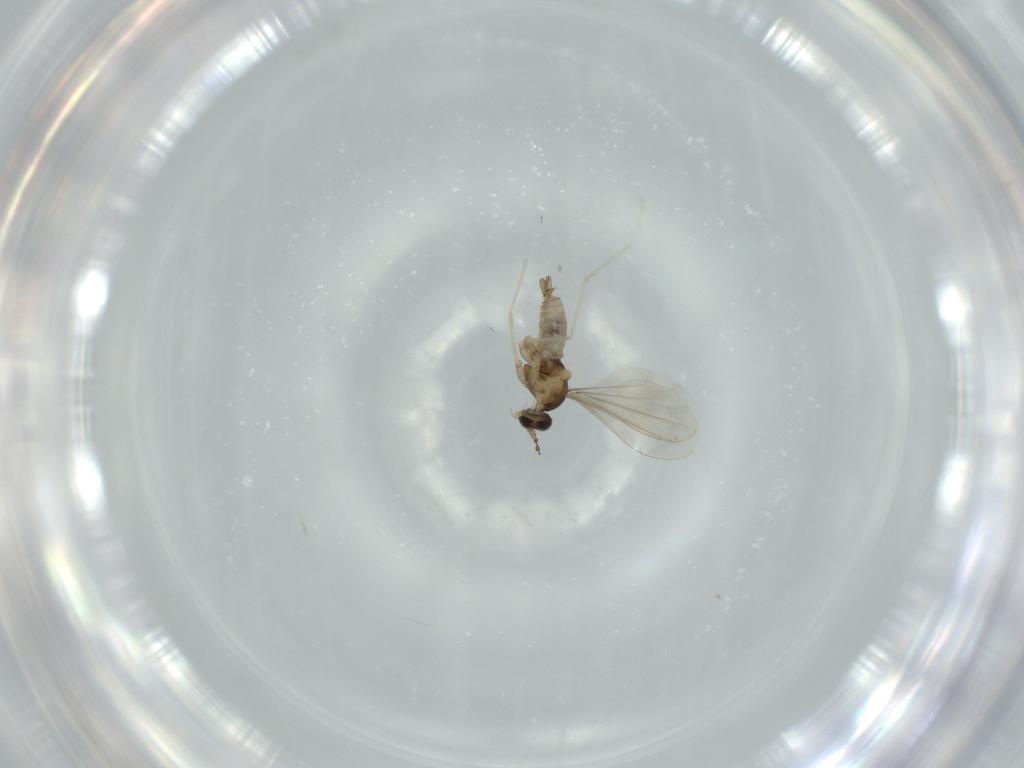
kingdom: Animalia
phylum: Arthropoda
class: Insecta
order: Diptera
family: Cecidomyiidae
